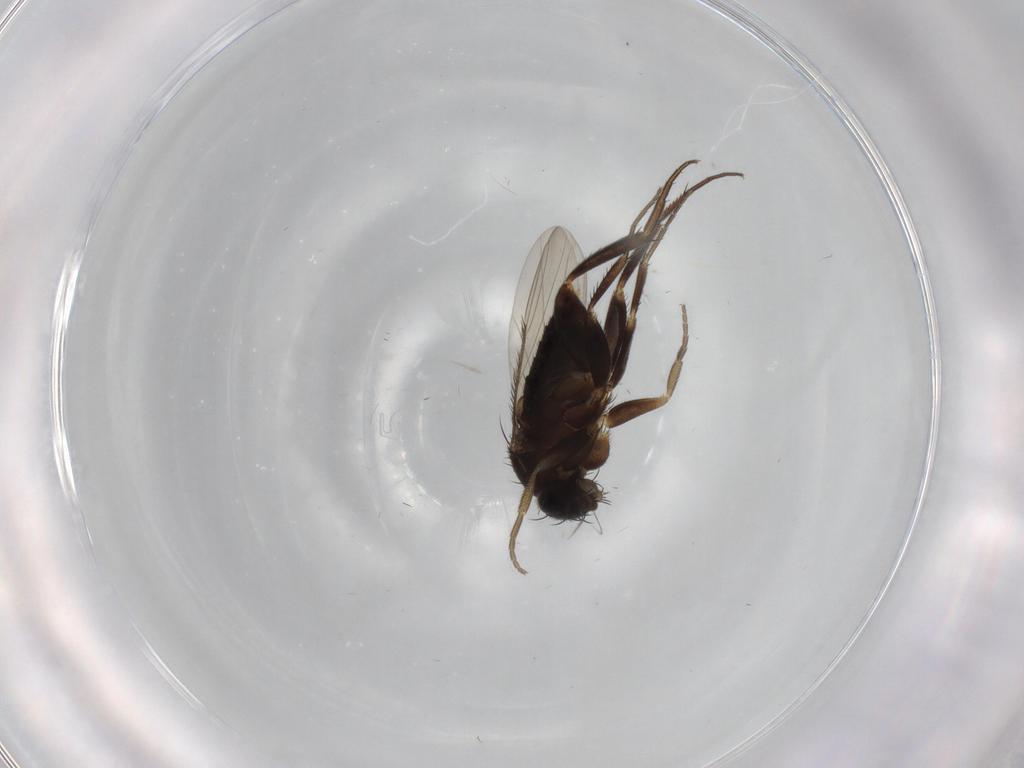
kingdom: Animalia
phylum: Arthropoda
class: Insecta
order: Diptera
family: Phoridae
